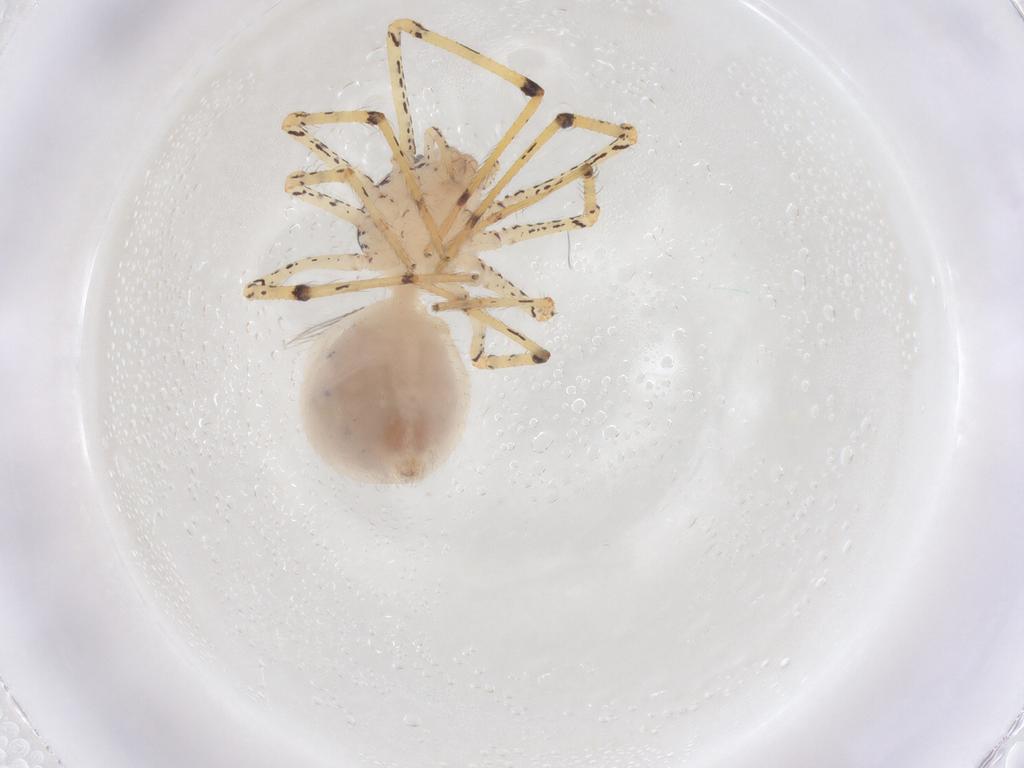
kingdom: Animalia
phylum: Arthropoda
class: Arachnida
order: Araneae
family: Scytodidae
